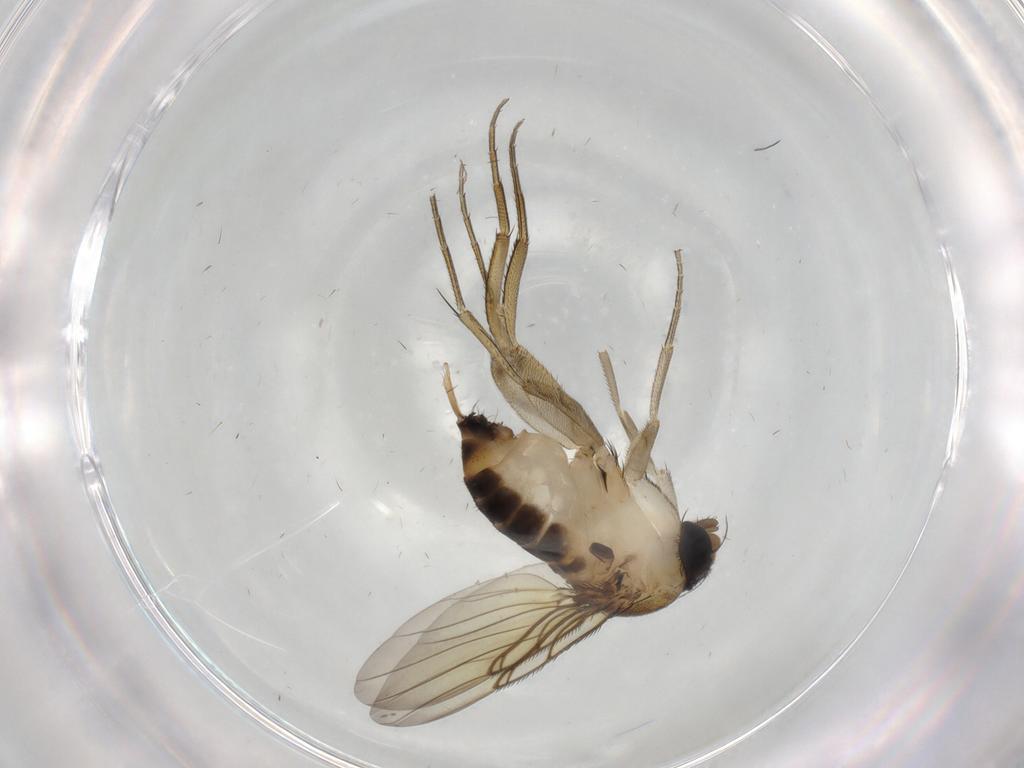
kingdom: Animalia
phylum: Arthropoda
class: Insecta
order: Diptera
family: Phoridae
